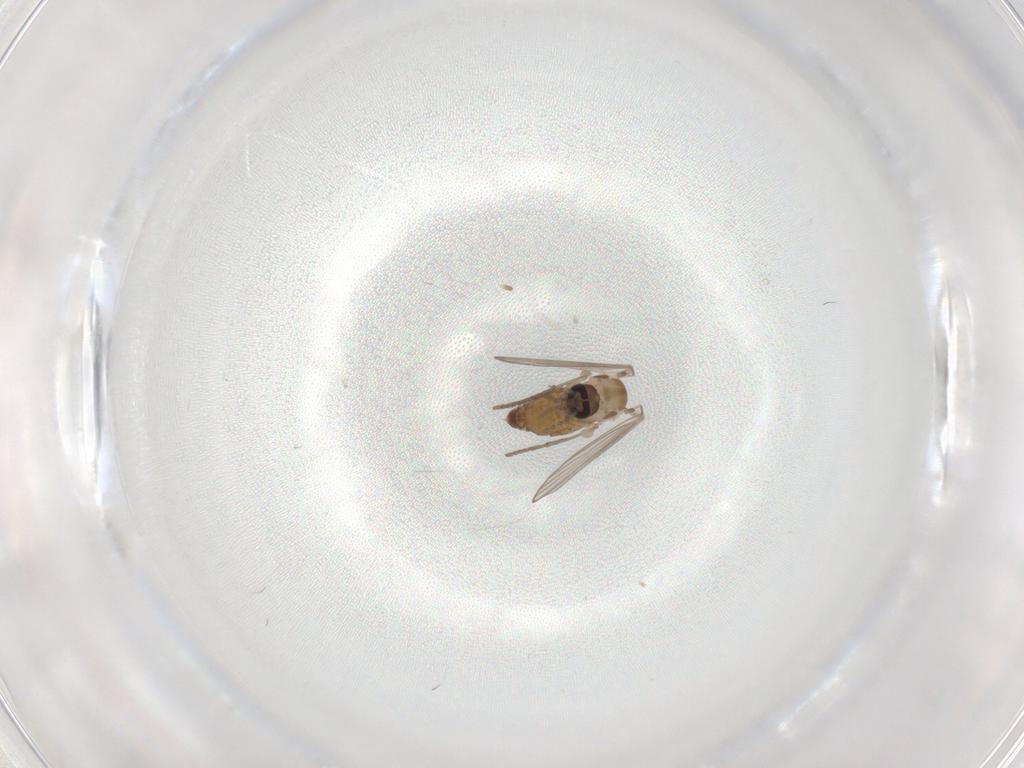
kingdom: Animalia
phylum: Arthropoda
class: Insecta
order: Diptera
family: Psychodidae
